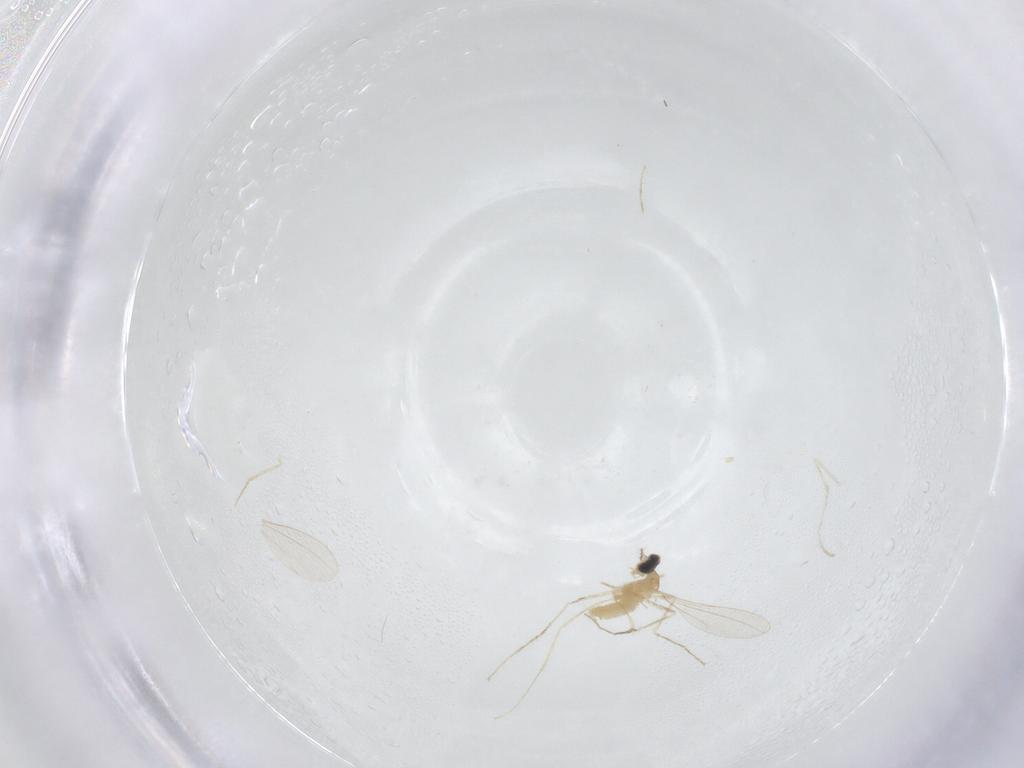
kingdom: Animalia
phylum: Arthropoda
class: Insecta
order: Diptera
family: Cecidomyiidae
